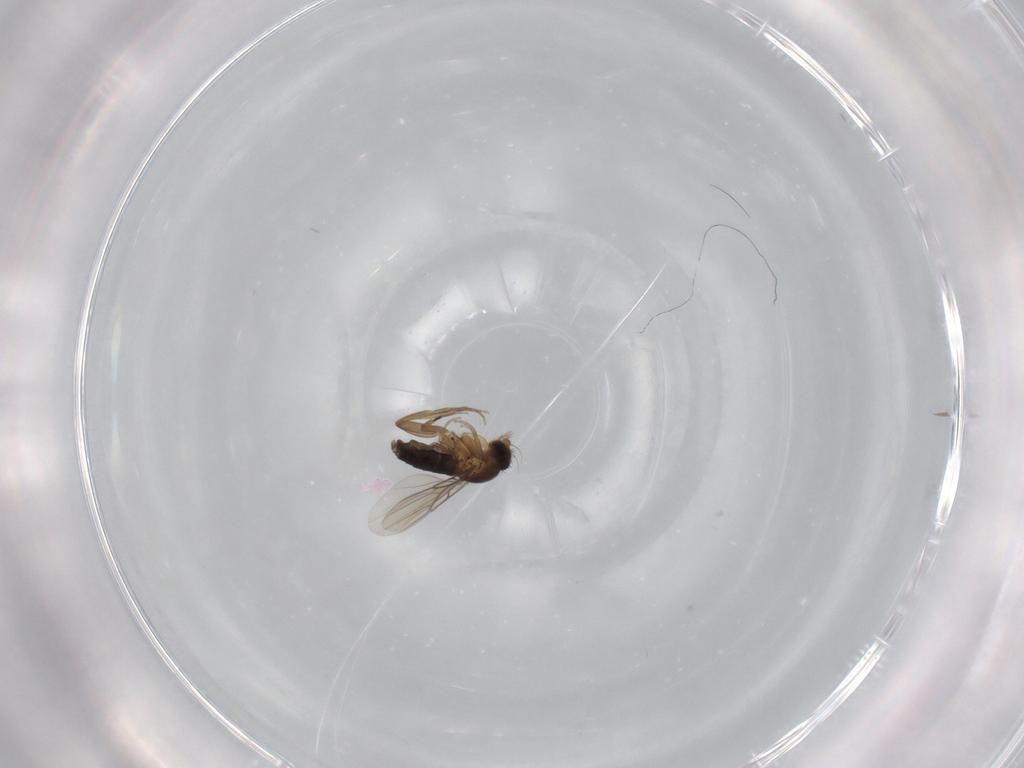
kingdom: Animalia
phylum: Arthropoda
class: Insecta
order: Diptera
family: Phoridae
